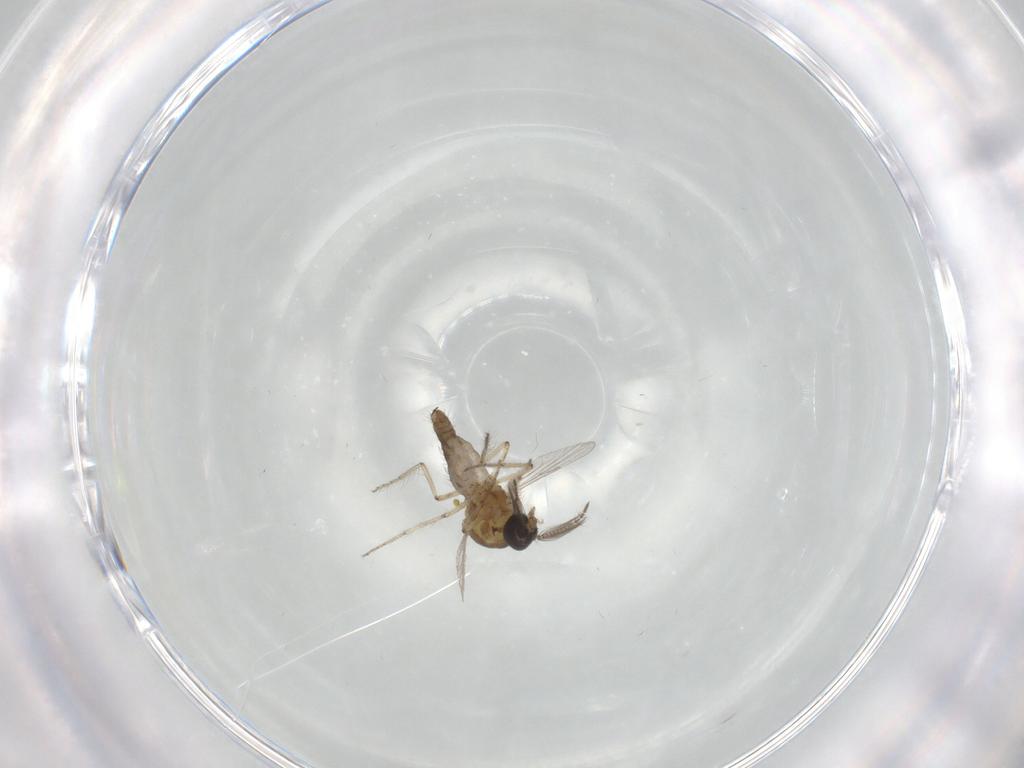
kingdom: Animalia
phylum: Arthropoda
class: Insecta
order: Diptera
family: Ceratopogonidae
